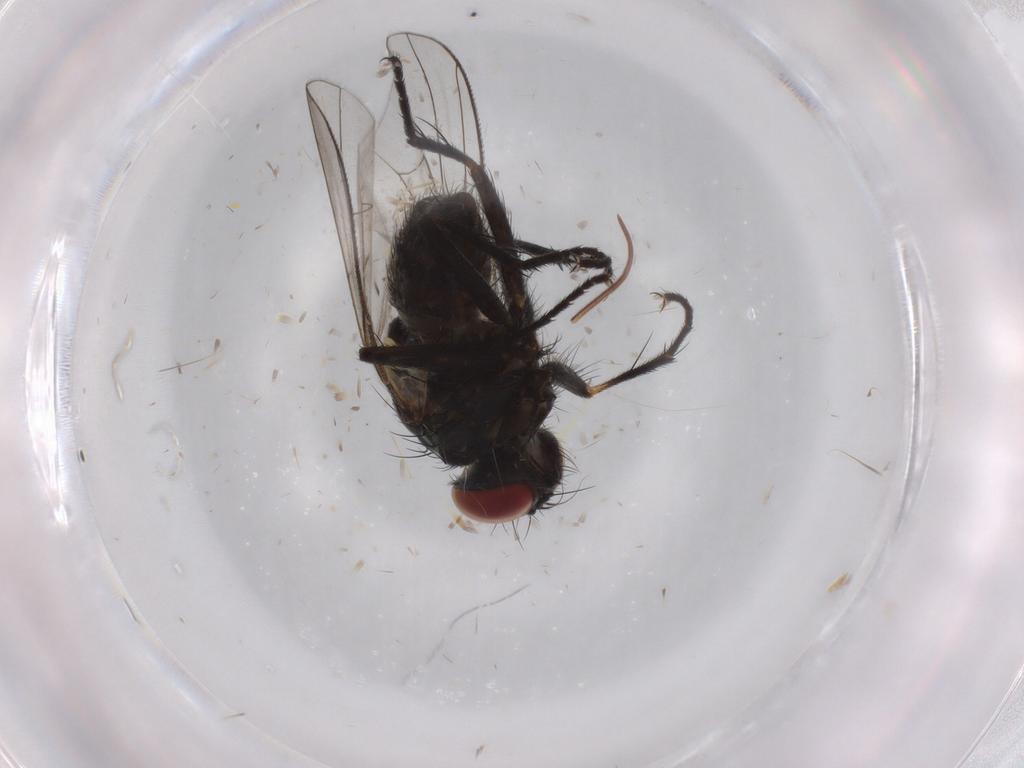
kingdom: Animalia
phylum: Arthropoda
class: Insecta
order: Diptera
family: Muscidae
